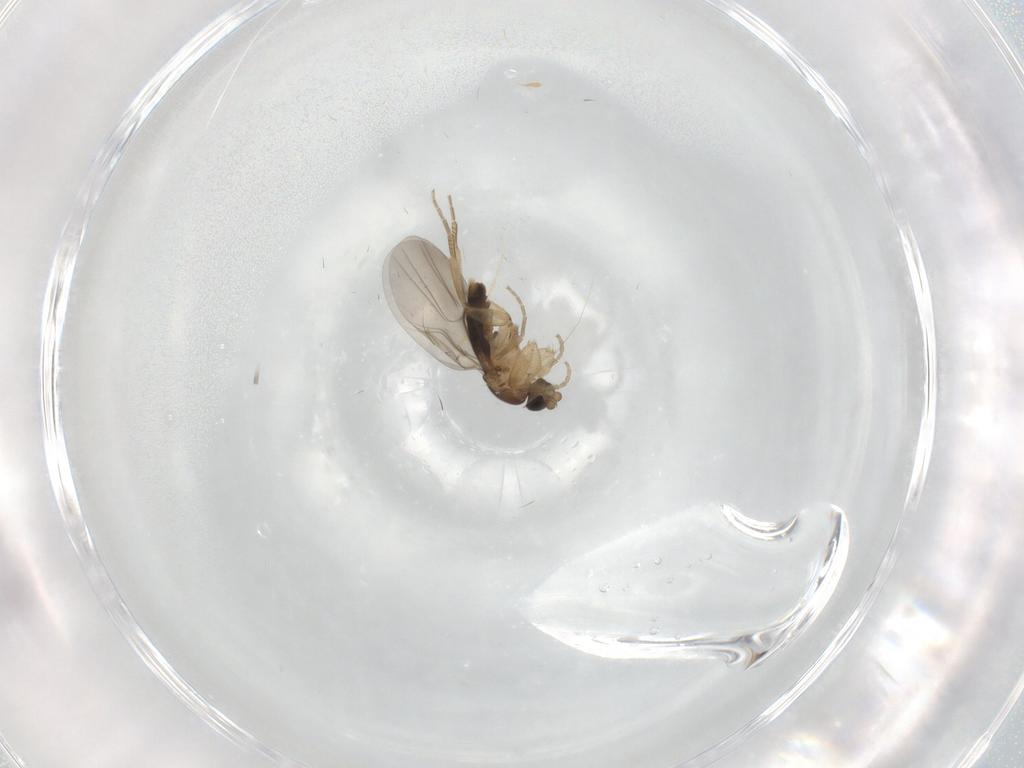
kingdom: Animalia
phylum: Arthropoda
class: Insecta
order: Diptera
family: Phoridae
